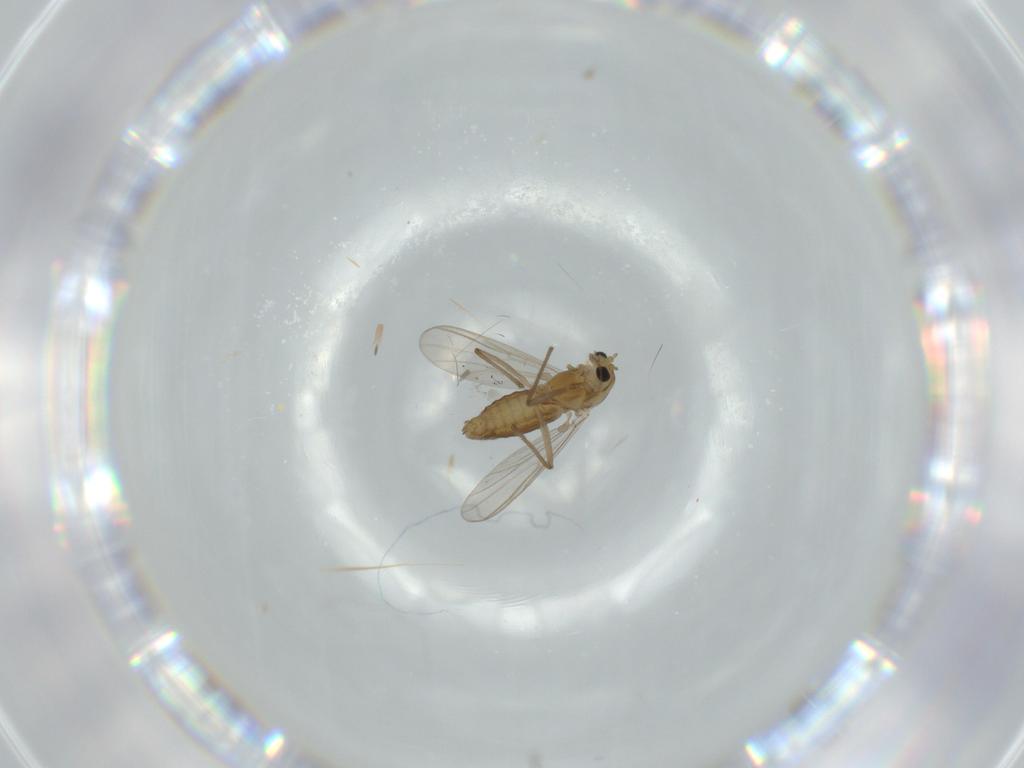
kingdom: Animalia
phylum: Arthropoda
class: Insecta
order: Diptera
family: Chironomidae
